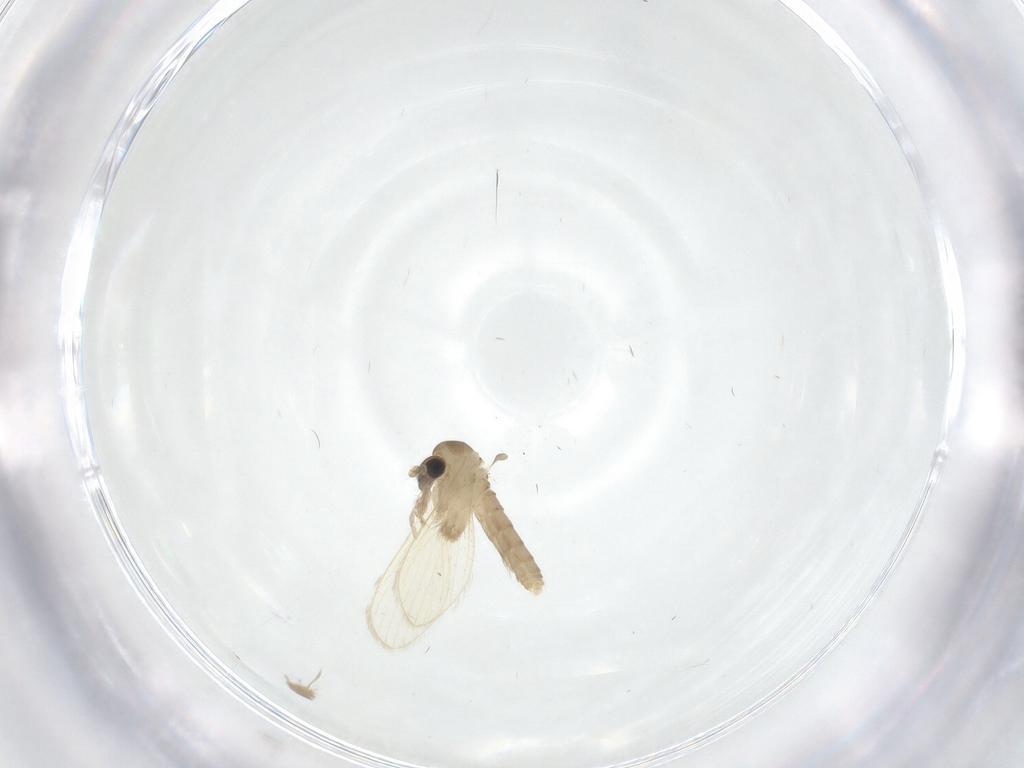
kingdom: Animalia
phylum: Arthropoda
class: Insecta
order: Diptera
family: Psychodidae
